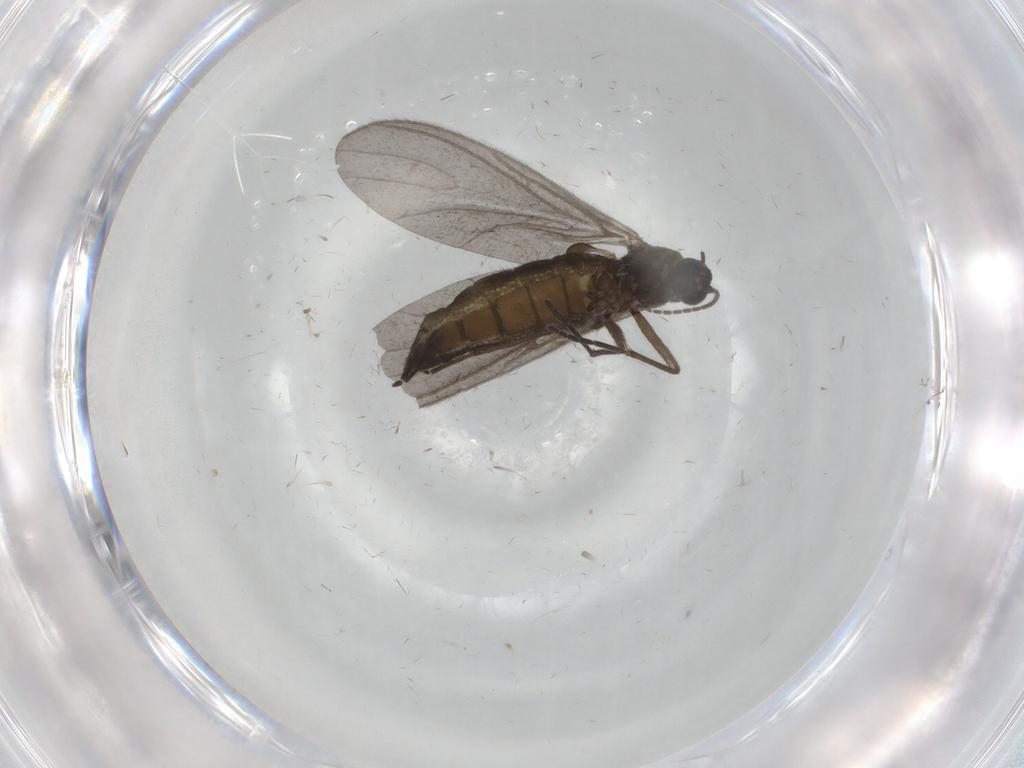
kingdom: Animalia
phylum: Arthropoda
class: Insecta
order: Diptera
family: Sciaridae
